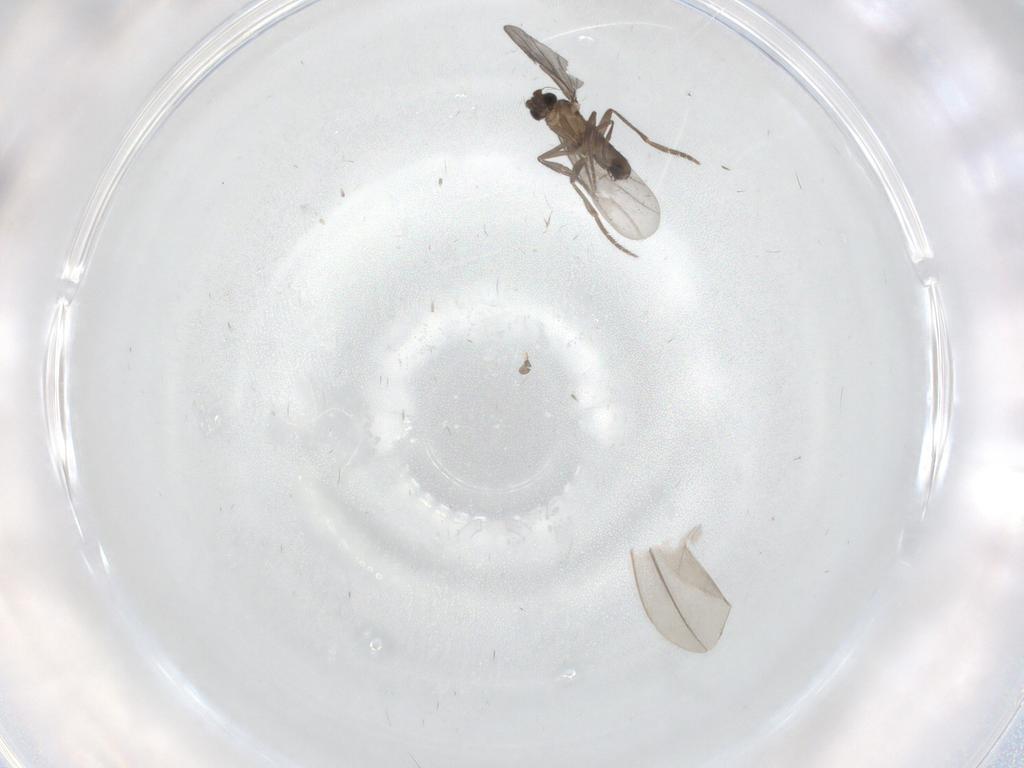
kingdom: Animalia
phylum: Arthropoda
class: Insecta
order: Diptera
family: Phoridae
